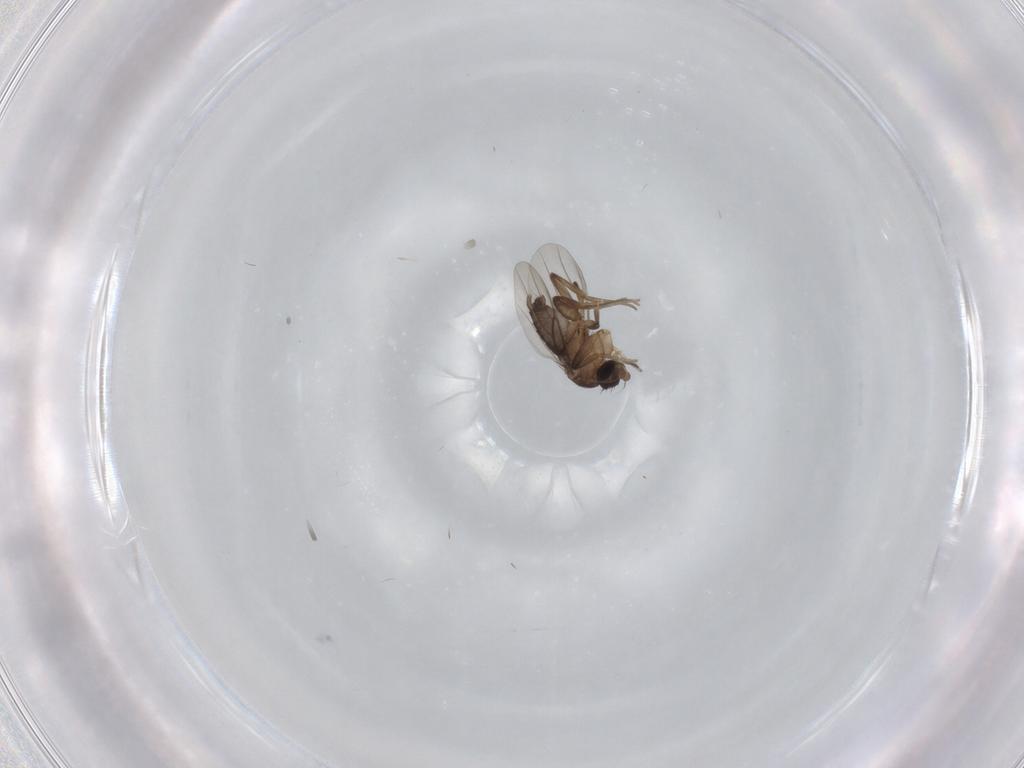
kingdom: Animalia
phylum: Arthropoda
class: Insecta
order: Diptera
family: Phoridae
